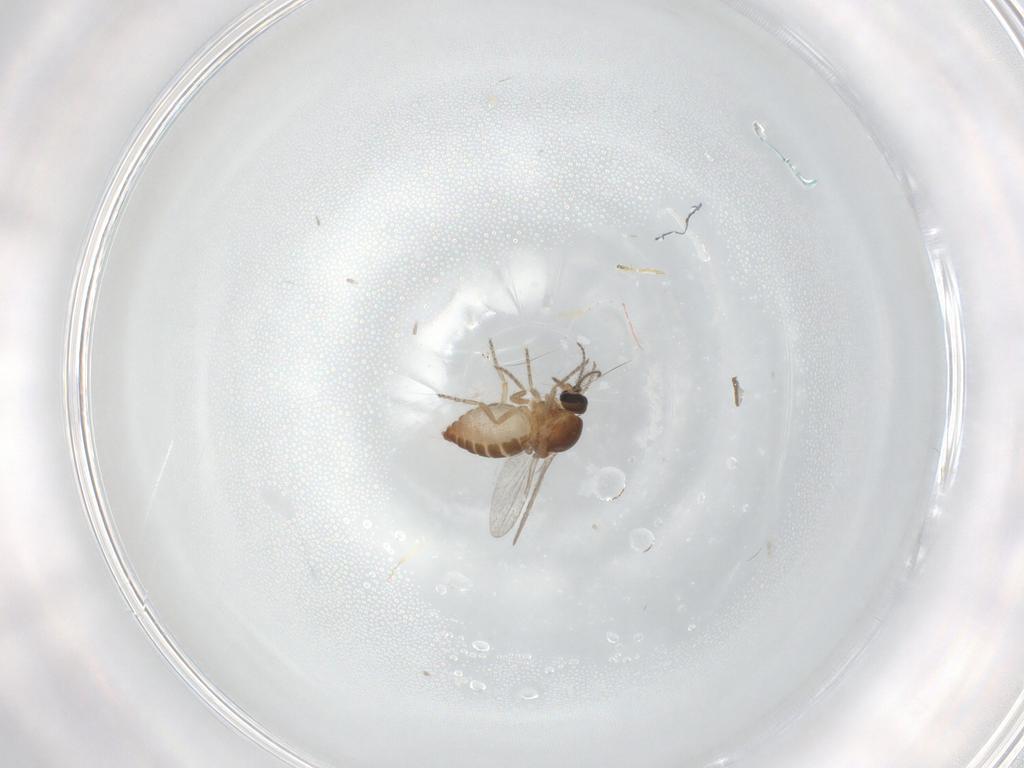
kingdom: Animalia
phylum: Arthropoda
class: Insecta
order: Diptera
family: Ceratopogonidae
